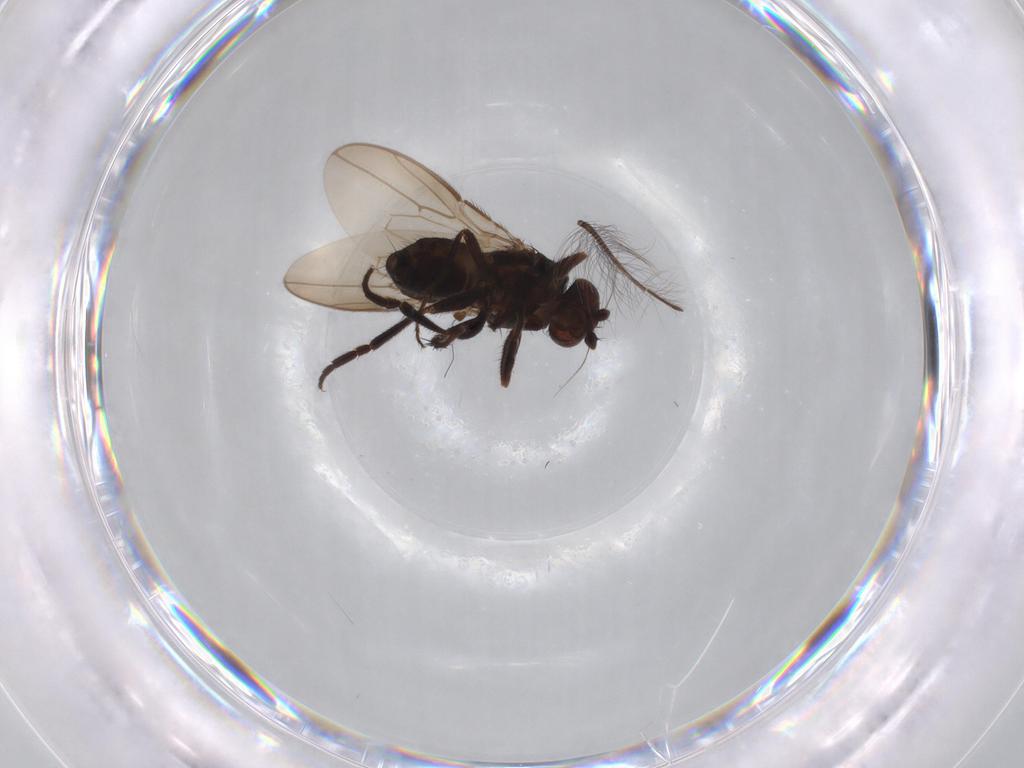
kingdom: Animalia
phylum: Arthropoda
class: Insecta
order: Diptera
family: Sphaeroceridae
